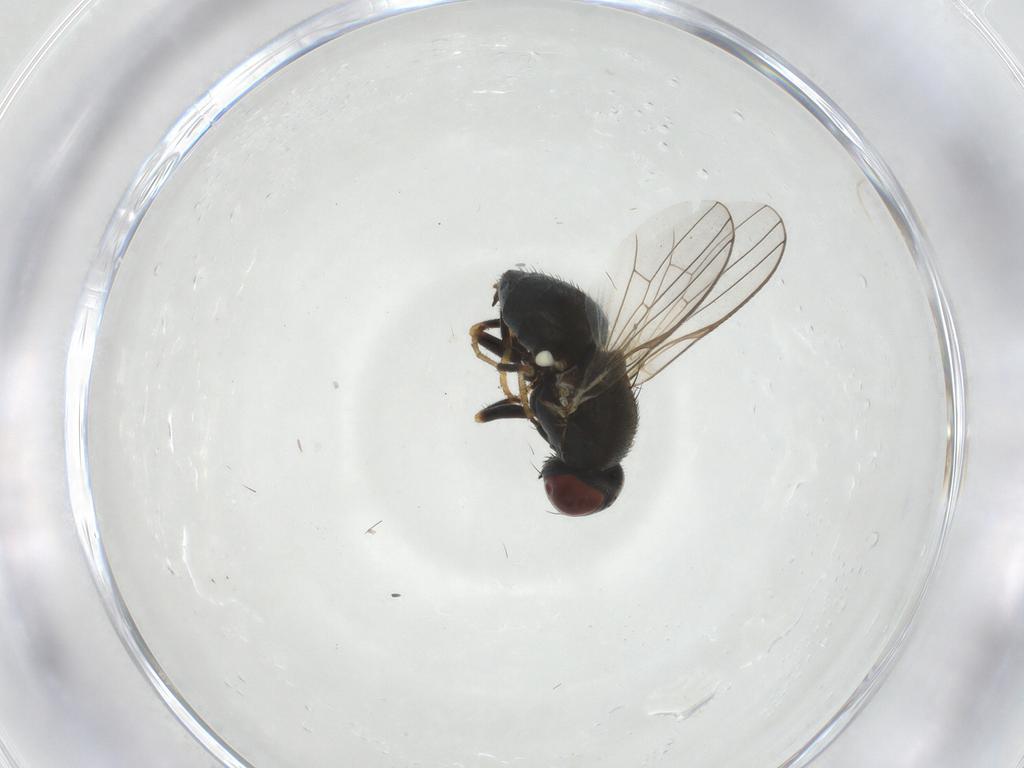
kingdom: Animalia
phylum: Arthropoda
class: Insecta
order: Diptera
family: Chamaemyiidae
